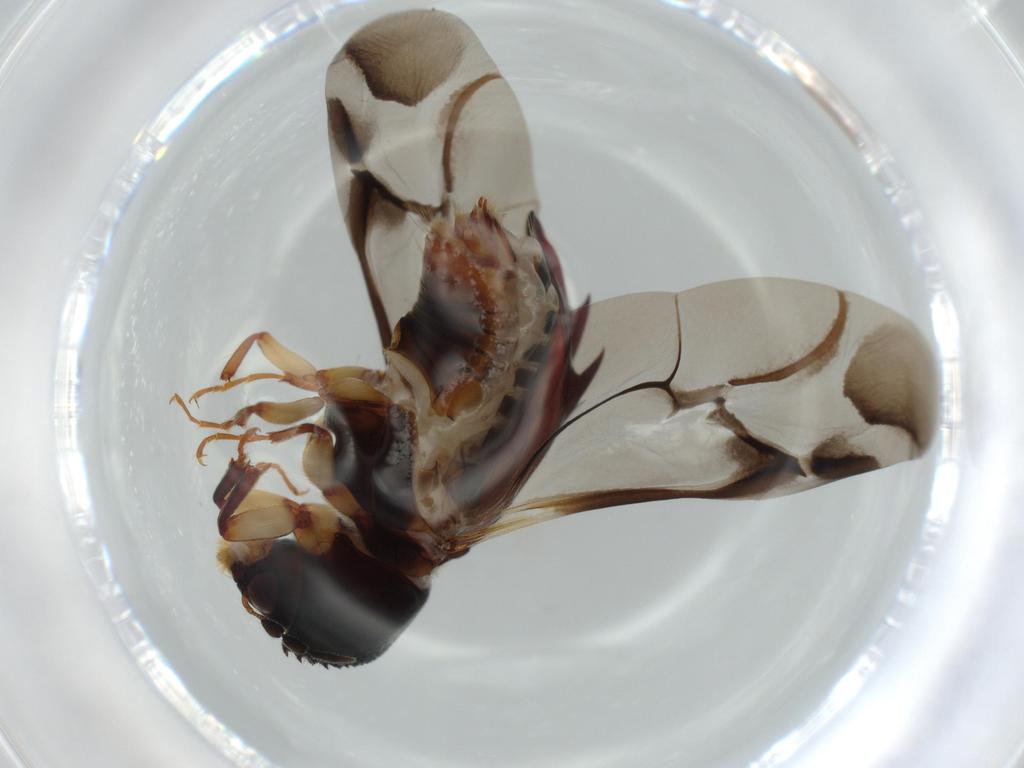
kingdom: Animalia
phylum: Arthropoda
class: Insecta
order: Coleoptera
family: Bostrichidae
